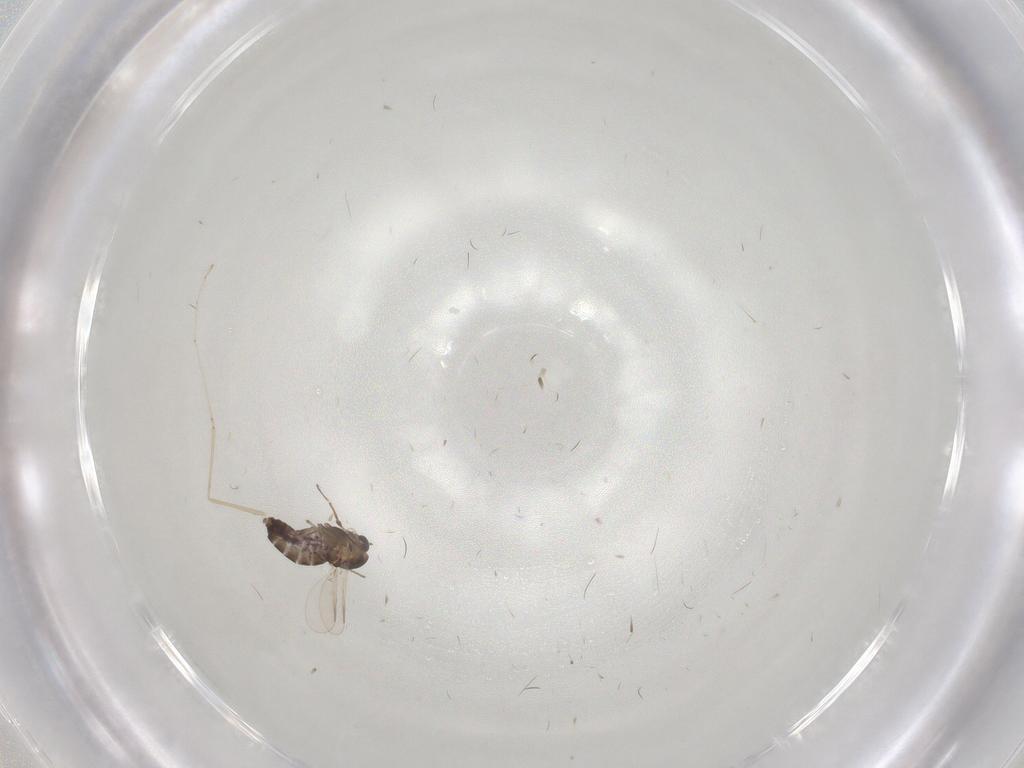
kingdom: Animalia
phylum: Arthropoda
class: Insecta
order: Diptera
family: Chironomidae
